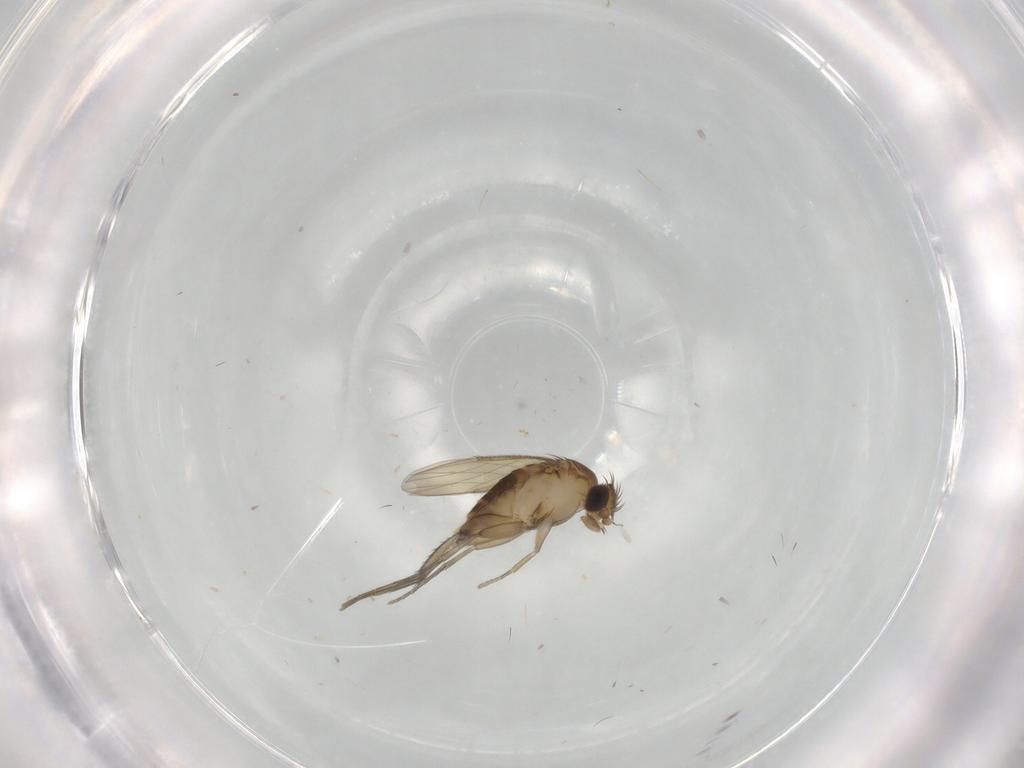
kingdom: Animalia
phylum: Arthropoda
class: Insecta
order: Diptera
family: Phoridae
